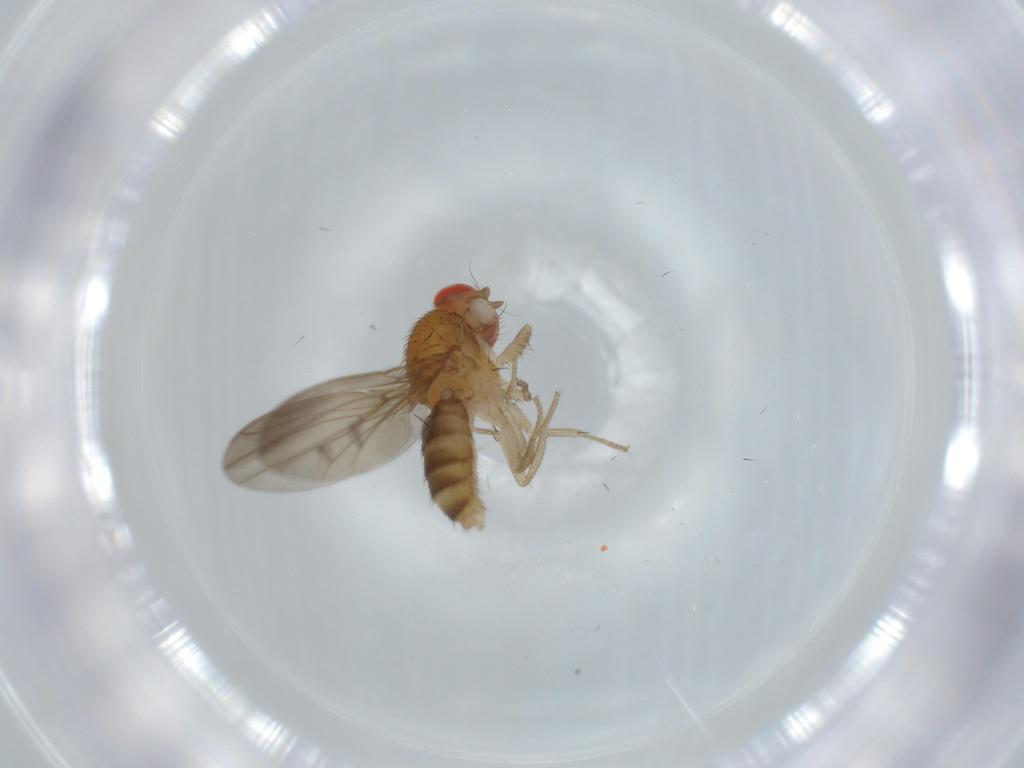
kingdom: Animalia
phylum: Arthropoda
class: Insecta
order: Diptera
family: Drosophilidae
